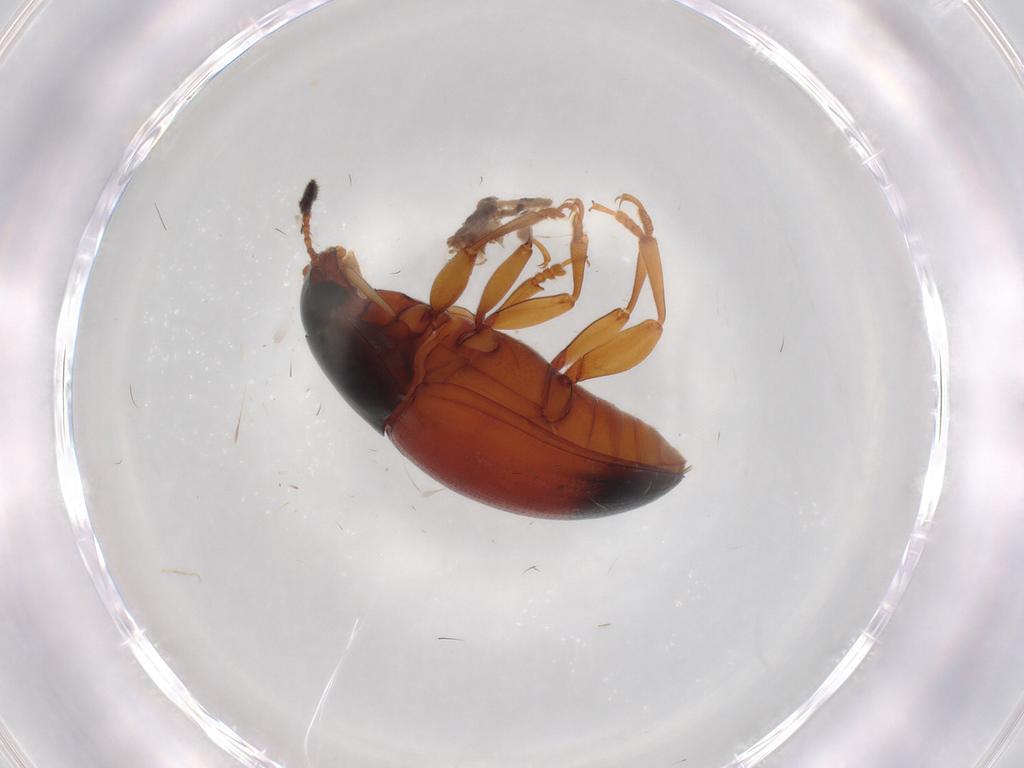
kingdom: Animalia
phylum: Arthropoda
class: Insecta
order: Coleoptera
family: Erotylidae
